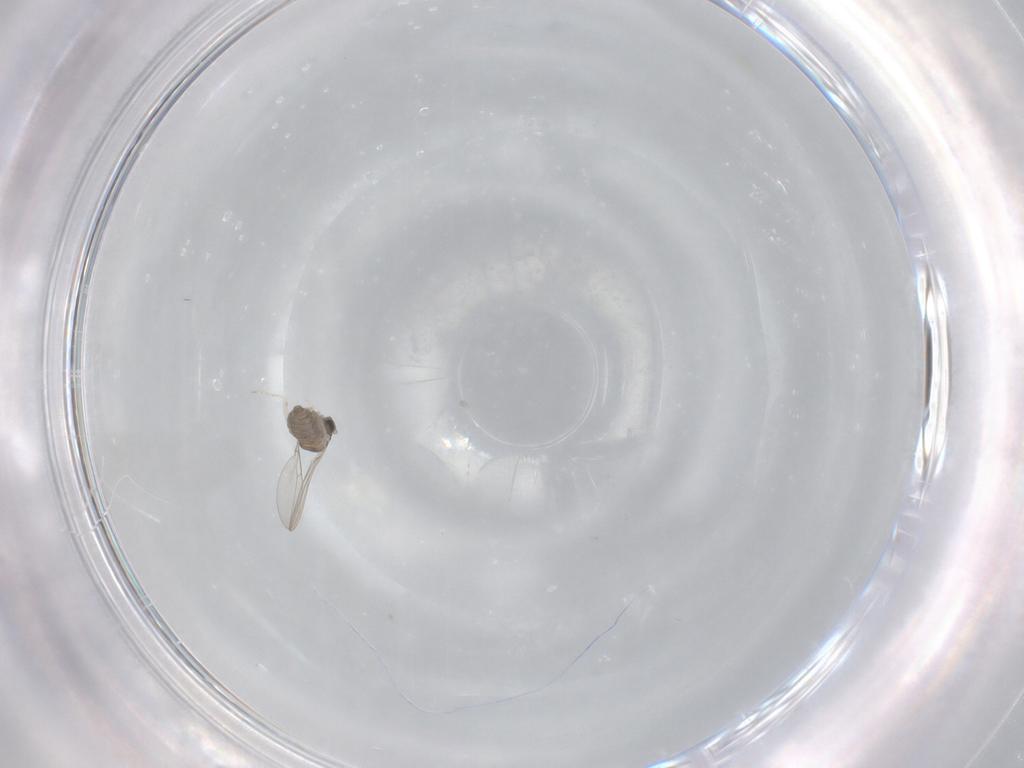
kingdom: Animalia
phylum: Arthropoda
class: Insecta
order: Diptera
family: Cecidomyiidae
